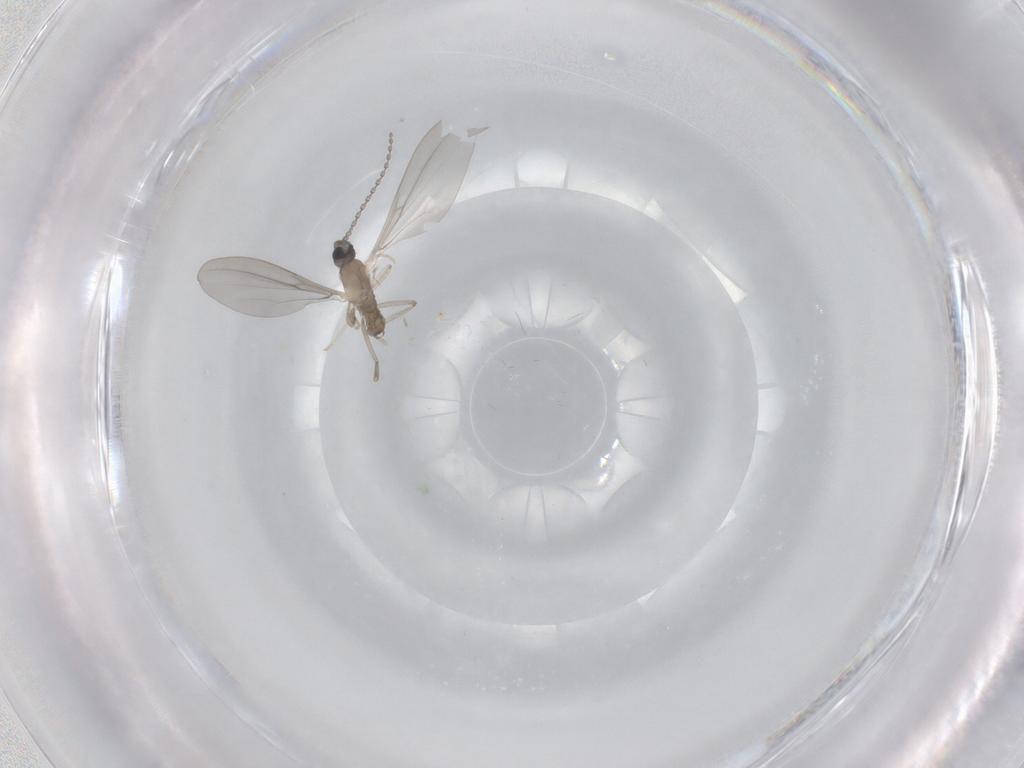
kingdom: Animalia
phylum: Arthropoda
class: Insecta
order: Diptera
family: Cecidomyiidae
